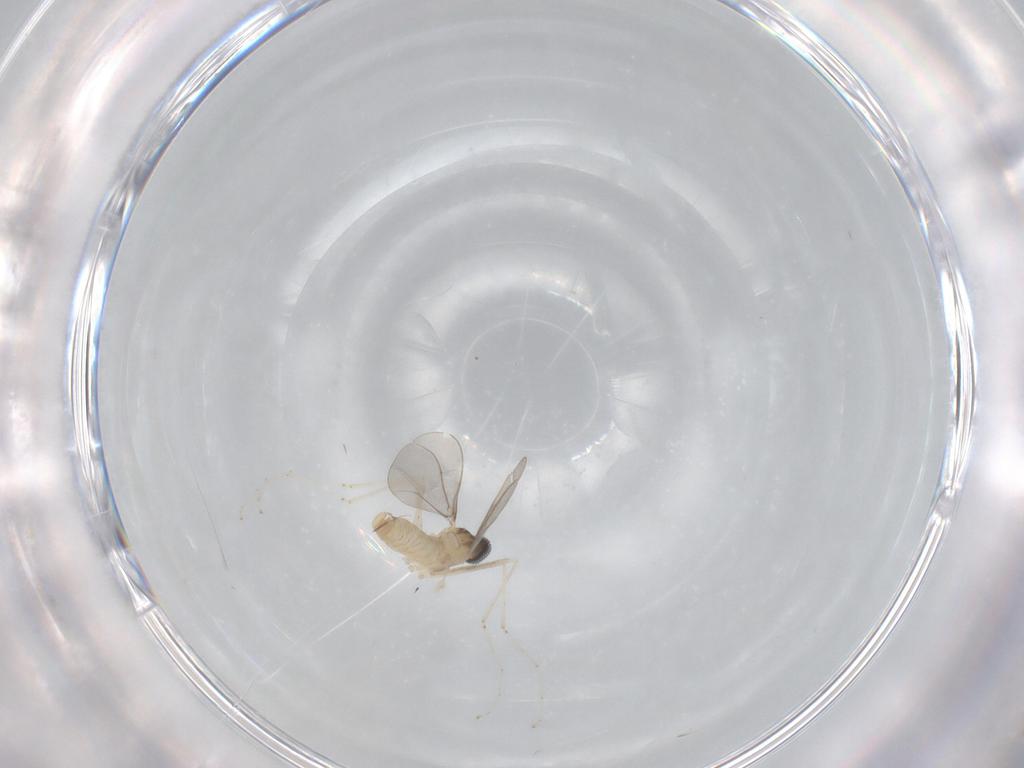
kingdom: Animalia
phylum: Arthropoda
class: Insecta
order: Diptera
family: Cecidomyiidae
